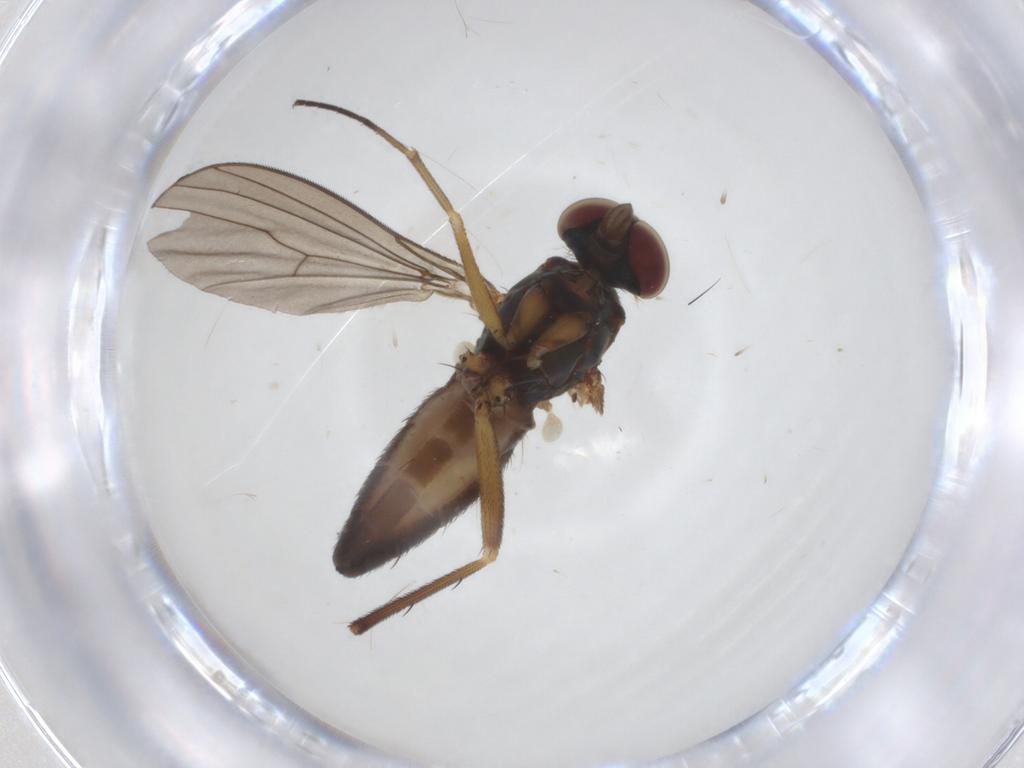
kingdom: Animalia
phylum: Arthropoda
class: Insecta
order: Diptera
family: Dolichopodidae
